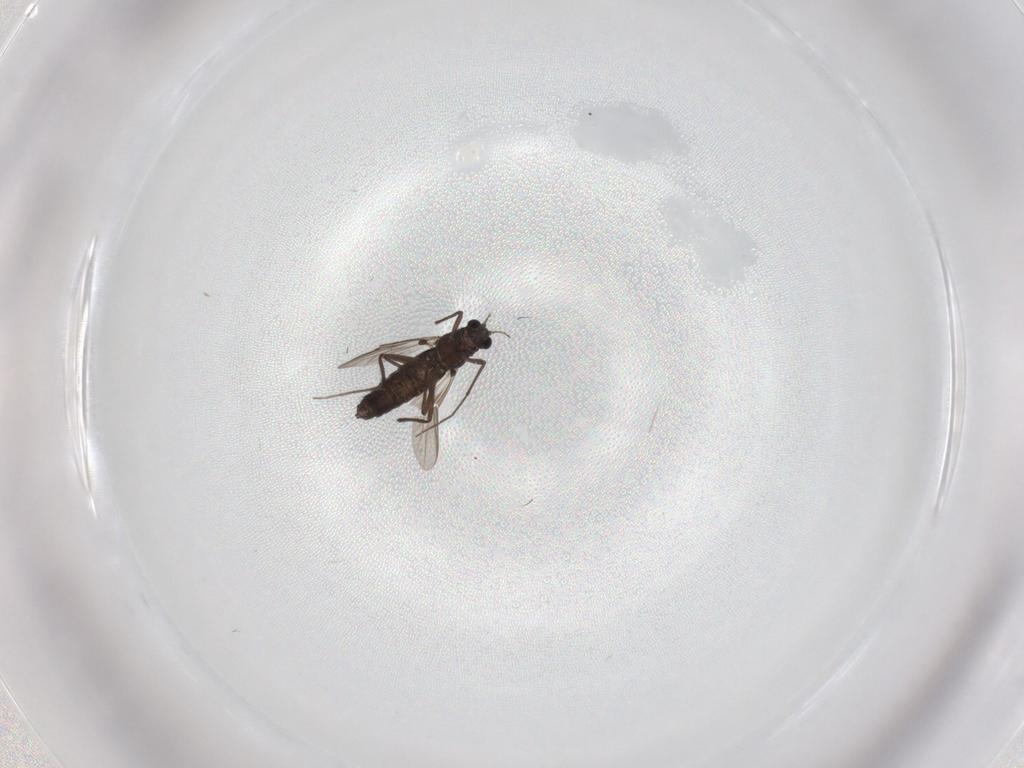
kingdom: Animalia
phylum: Arthropoda
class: Insecta
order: Diptera
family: Chironomidae
